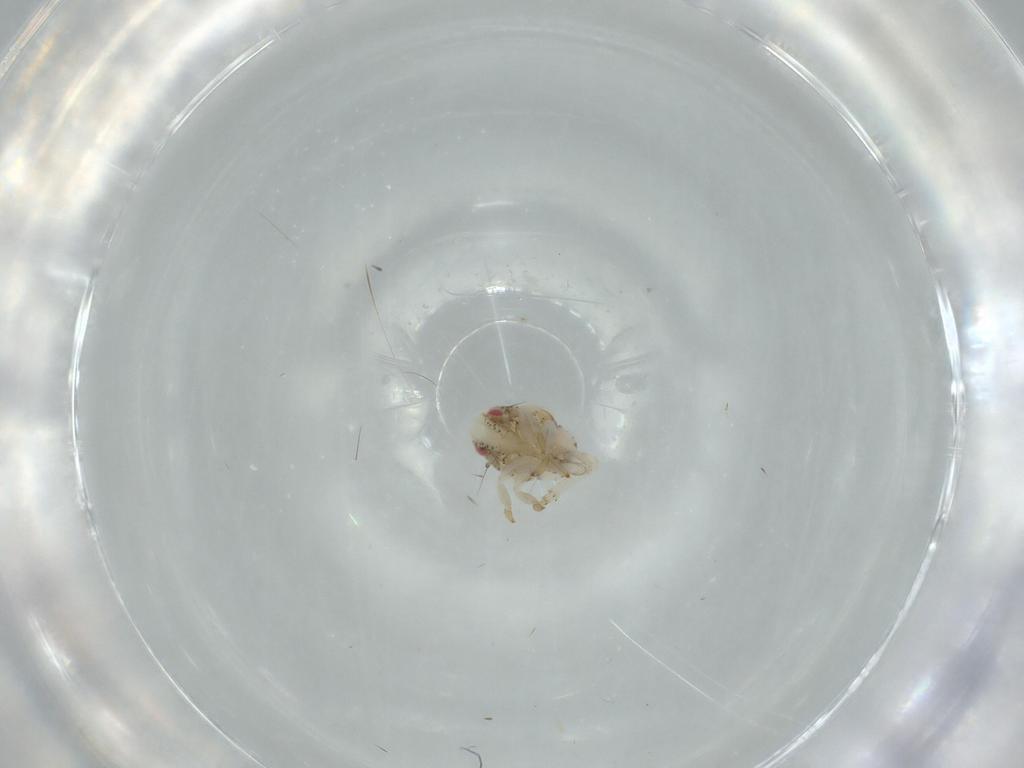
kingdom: Animalia
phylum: Arthropoda
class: Insecta
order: Hemiptera
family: Acanaloniidae
